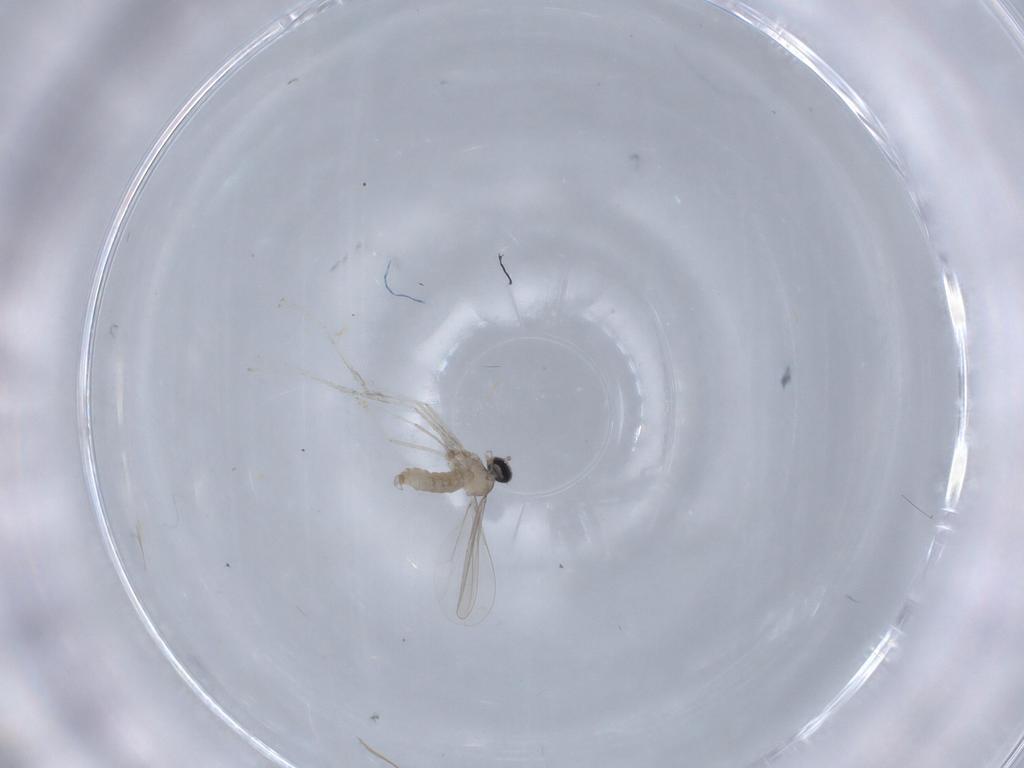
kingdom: Animalia
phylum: Arthropoda
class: Insecta
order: Diptera
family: Cecidomyiidae
